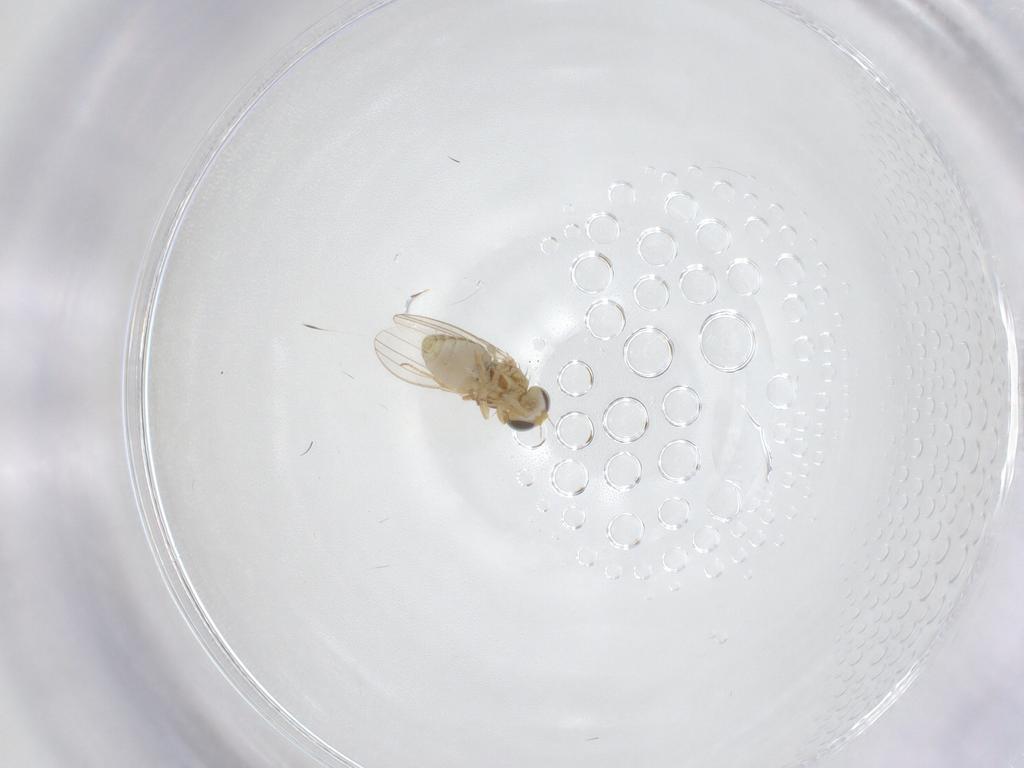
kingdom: Animalia
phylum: Arthropoda
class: Insecta
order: Diptera
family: Chyromyidae
